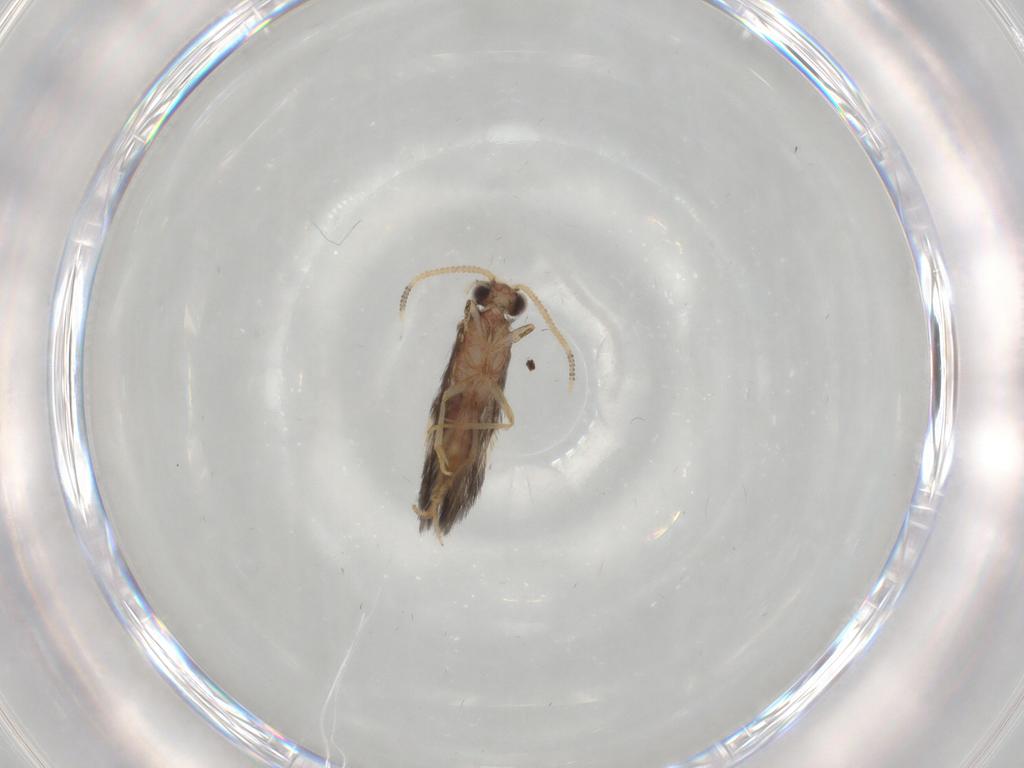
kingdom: Animalia
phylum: Arthropoda
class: Insecta
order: Trichoptera
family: Hydroptilidae
